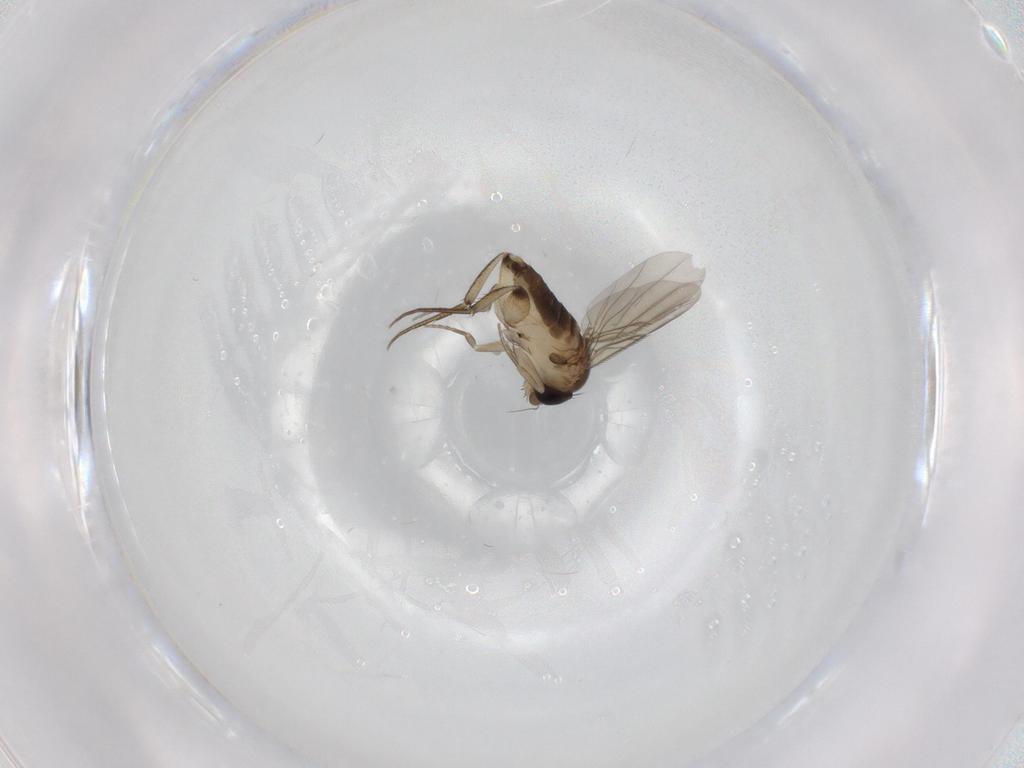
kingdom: Animalia
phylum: Arthropoda
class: Insecta
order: Diptera
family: Phoridae
